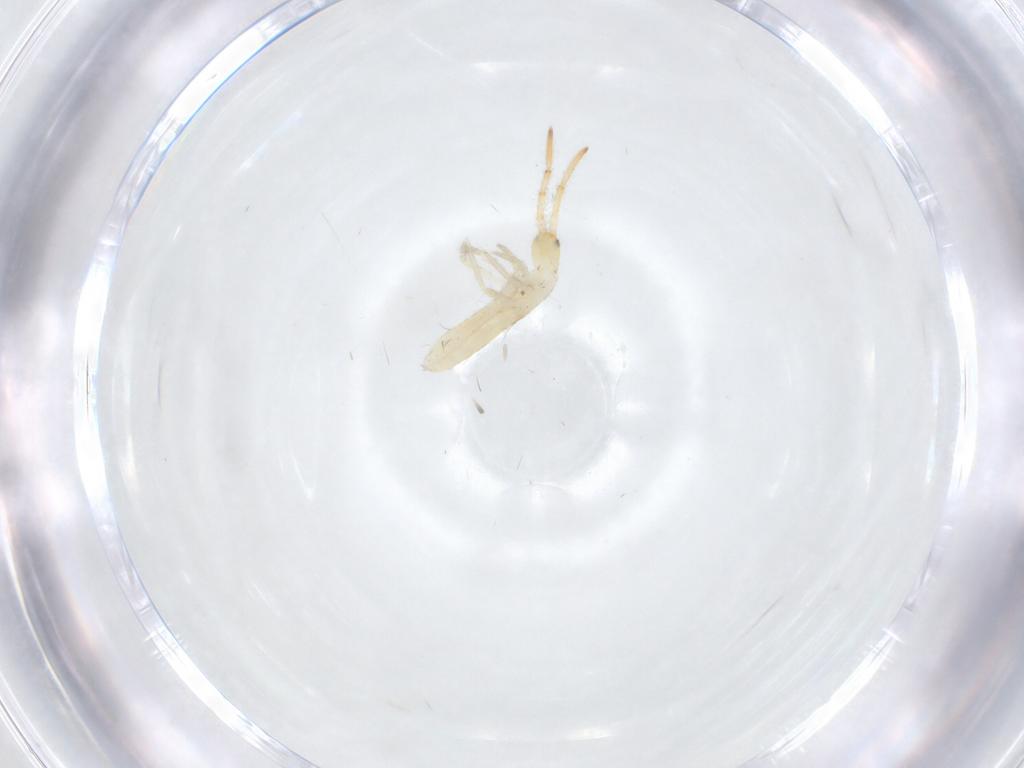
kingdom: Animalia
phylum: Arthropoda
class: Collembola
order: Entomobryomorpha
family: Entomobryidae
